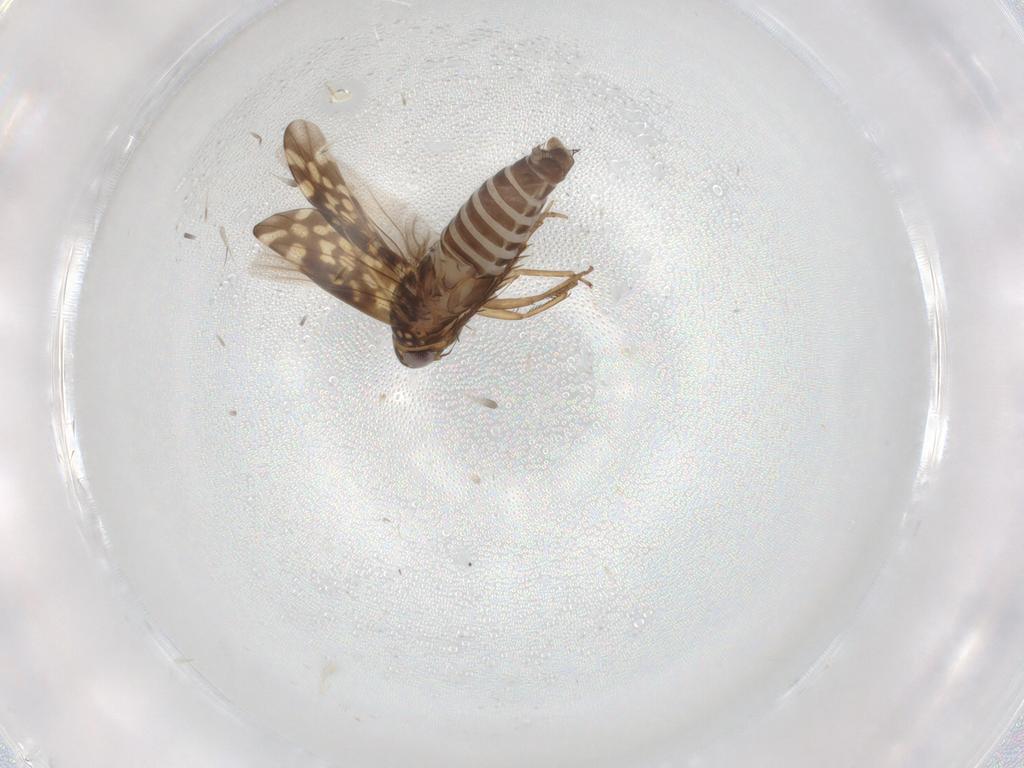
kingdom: Animalia
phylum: Arthropoda
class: Insecta
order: Hemiptera
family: Cicadellidae
